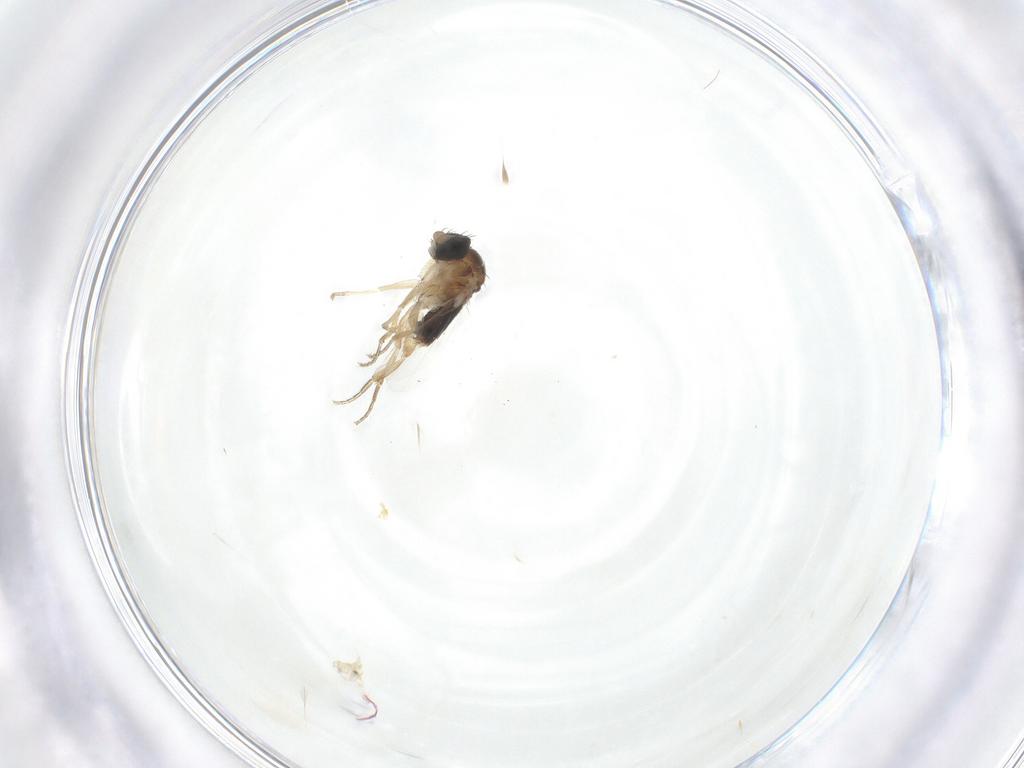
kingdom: Animalia
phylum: Arthropoda
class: Insecta
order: Diptera
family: Phoridae
